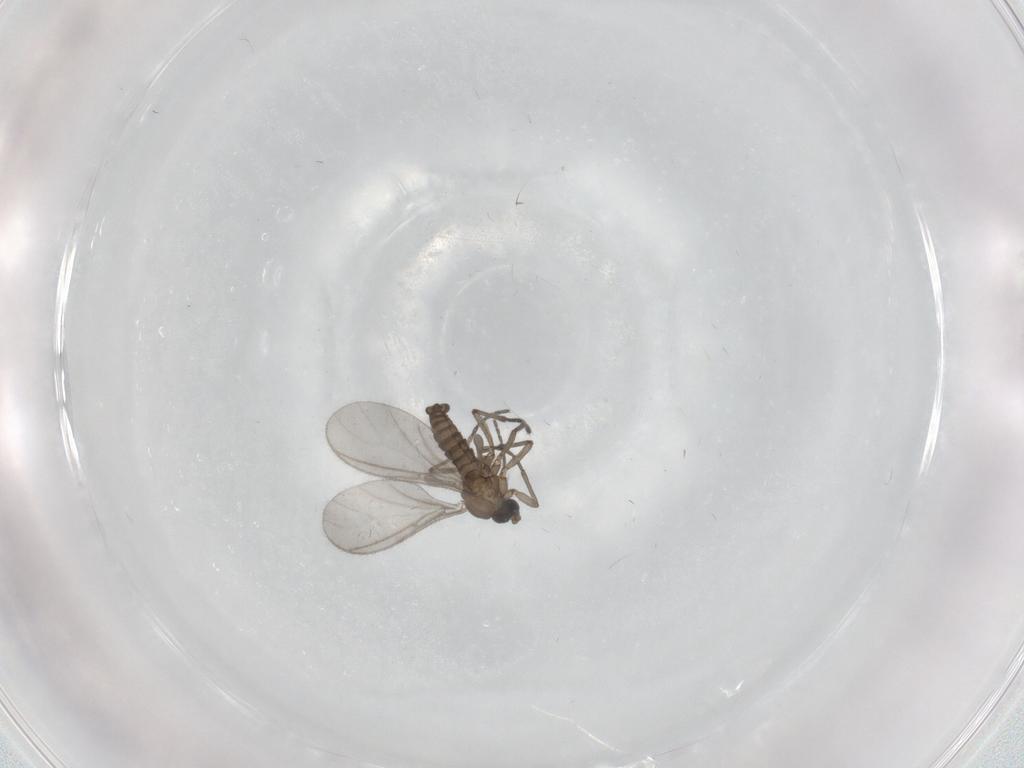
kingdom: Animalia
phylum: Arthropoda
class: Insecta
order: Diptera
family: Sciaridae
